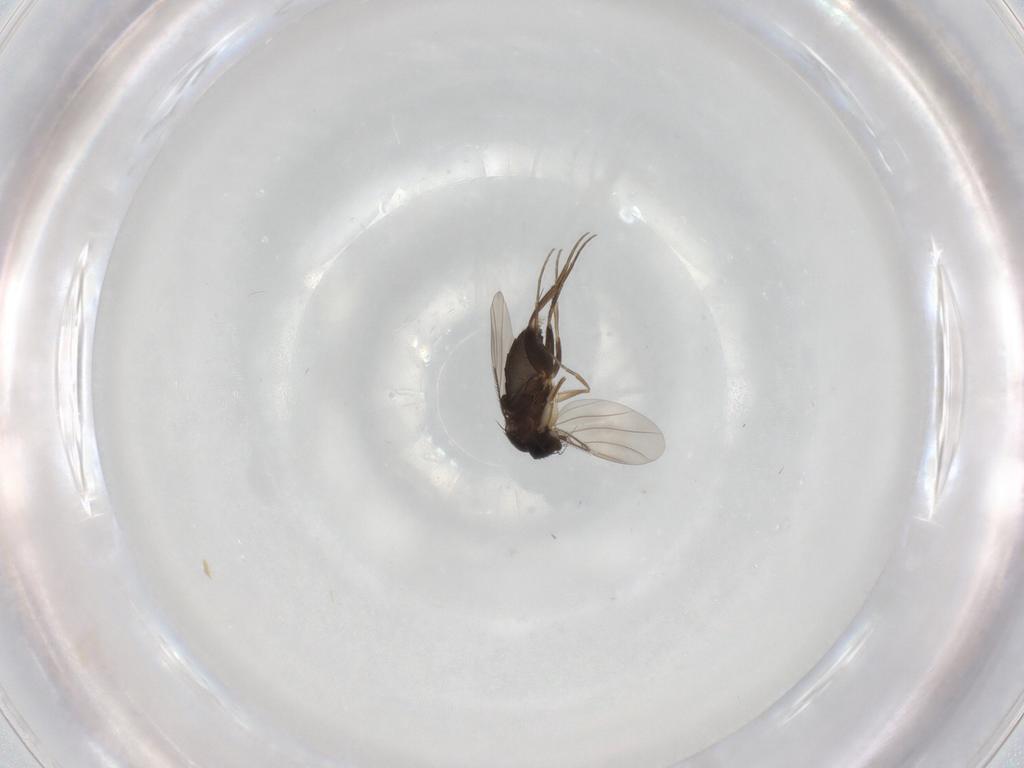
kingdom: Animalia
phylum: Arthropoda
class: Insecta
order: Diptera
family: Phoridae
